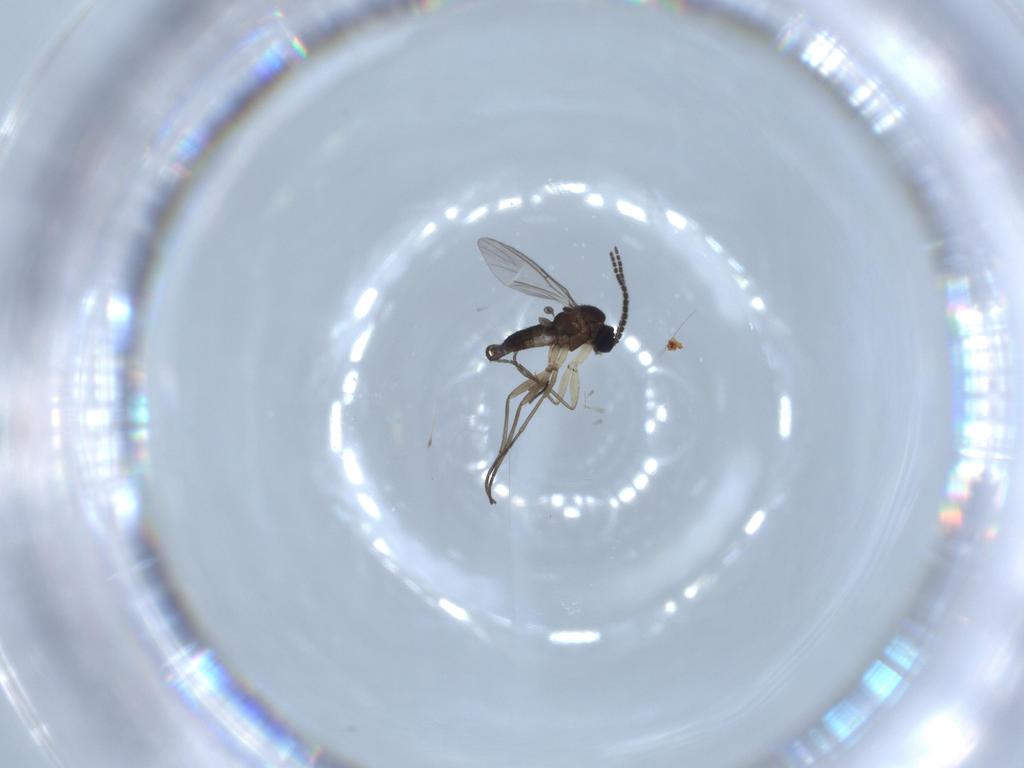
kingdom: Animalia
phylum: Arthropoda
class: Insecta
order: Diptera
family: Sciaridae
